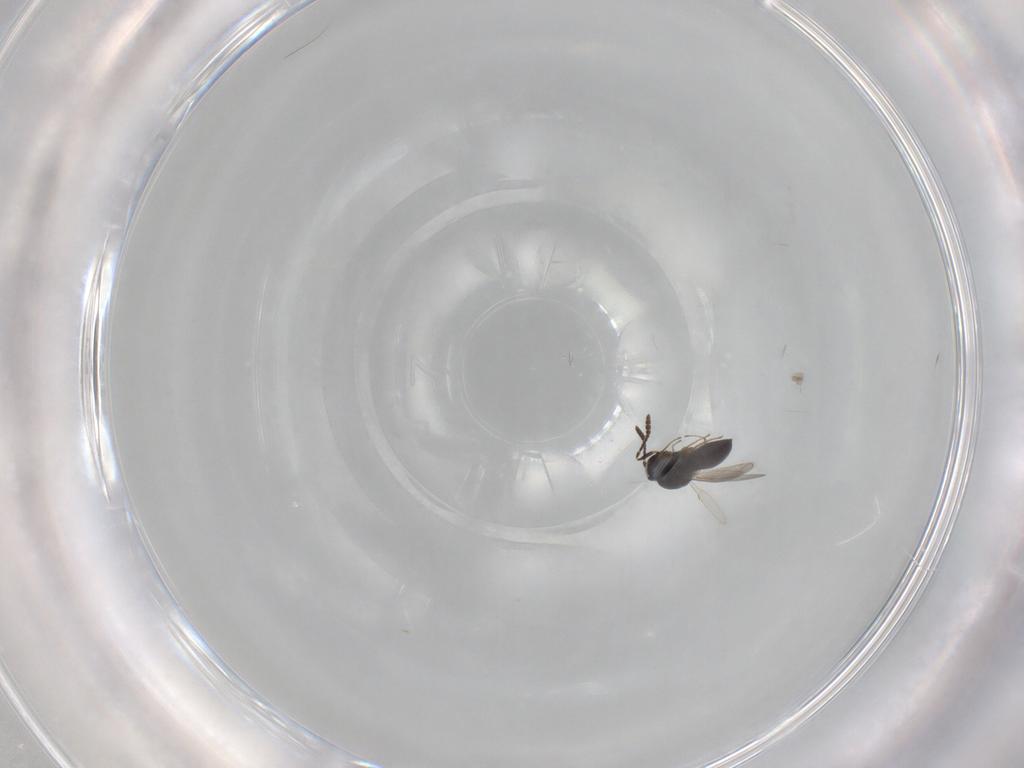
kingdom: Animalia
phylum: Arthropoda
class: Insecta
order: Hymenoptera
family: Scelionidae
